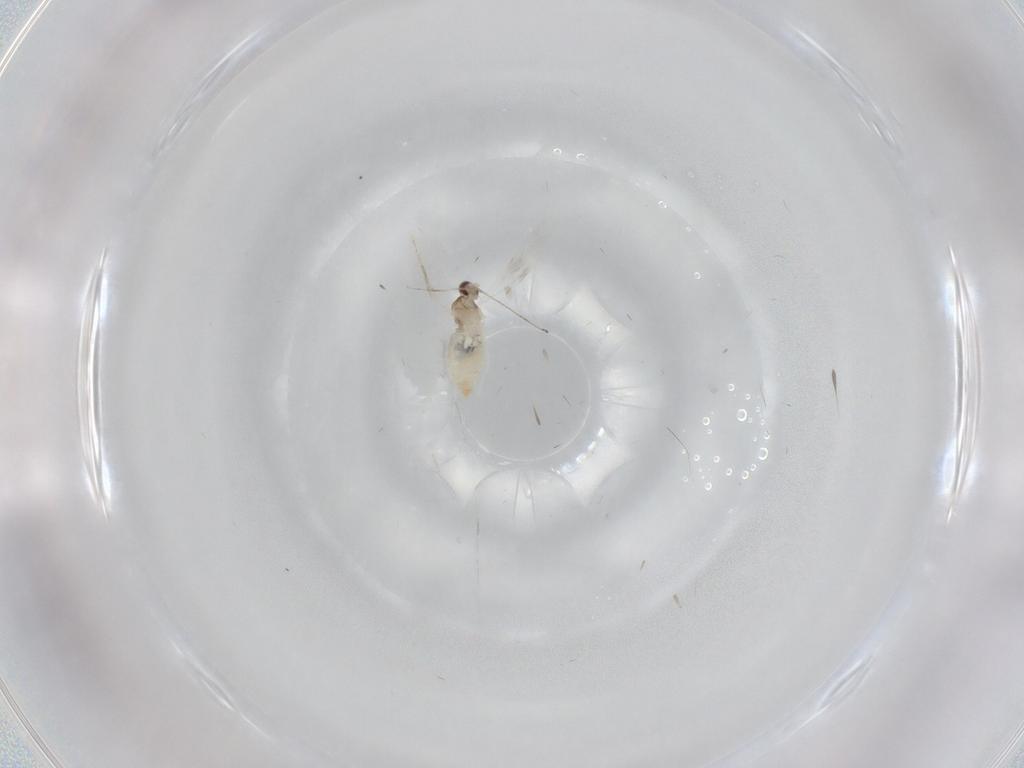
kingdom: Animalia
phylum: Arthropoda
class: Insecta
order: Diptera
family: Cecidomyiidae
